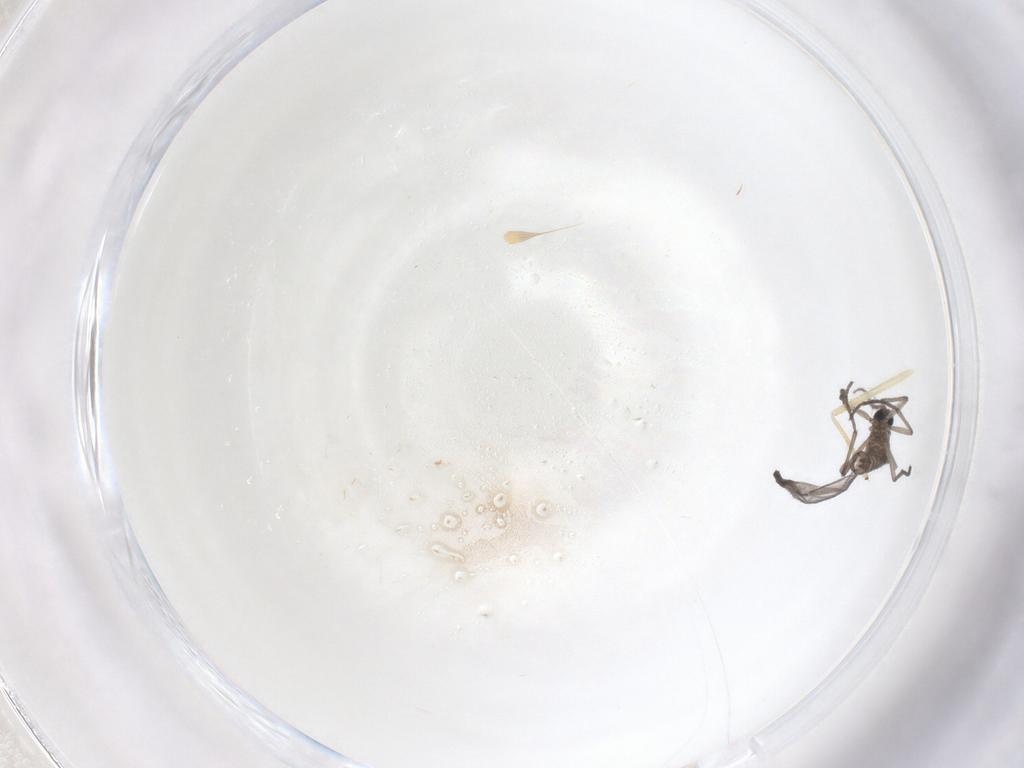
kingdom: Animalia
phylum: Arthropoda
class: Insecta
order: Diptera
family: Sciaridae
